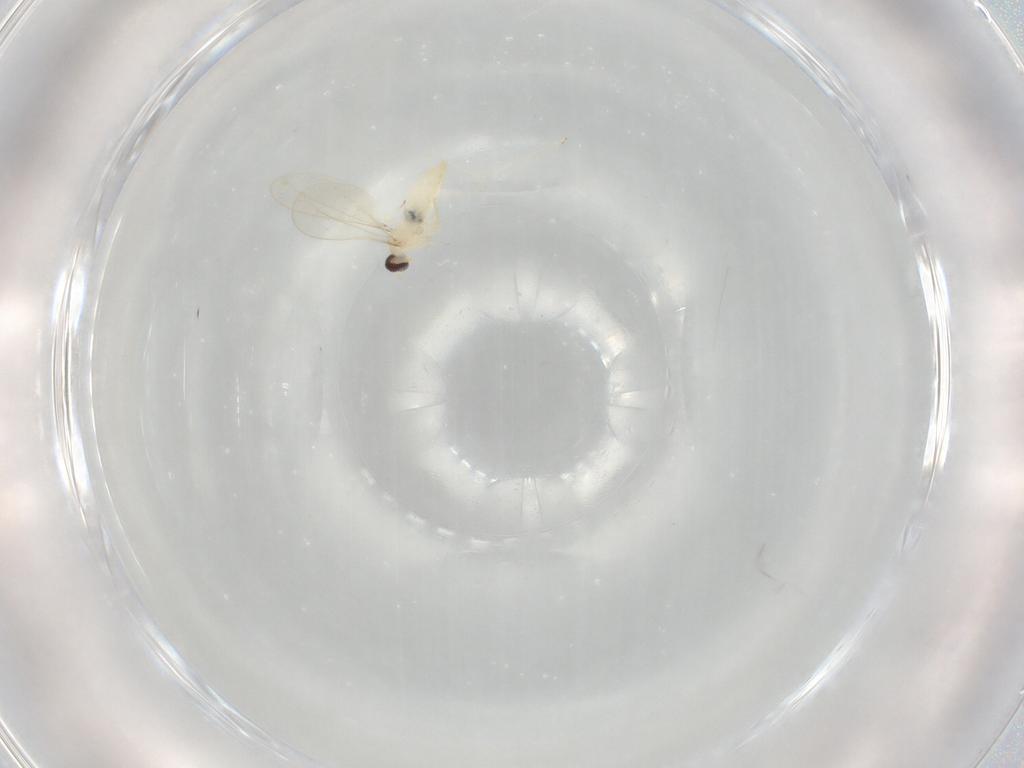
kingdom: Animalia
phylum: Arthropoda
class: Insecta
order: Diptera
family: Cecidomyiidae
